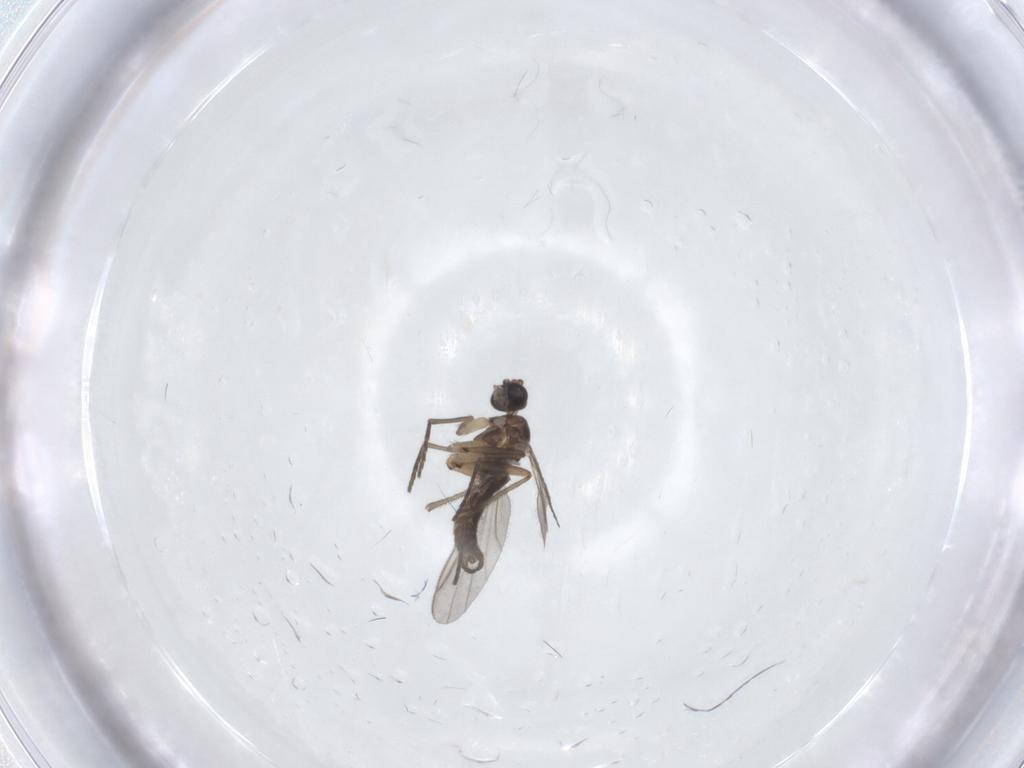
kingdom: Animalia
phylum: Arthropoda
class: Insecta
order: Diptera
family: Sciaridae
